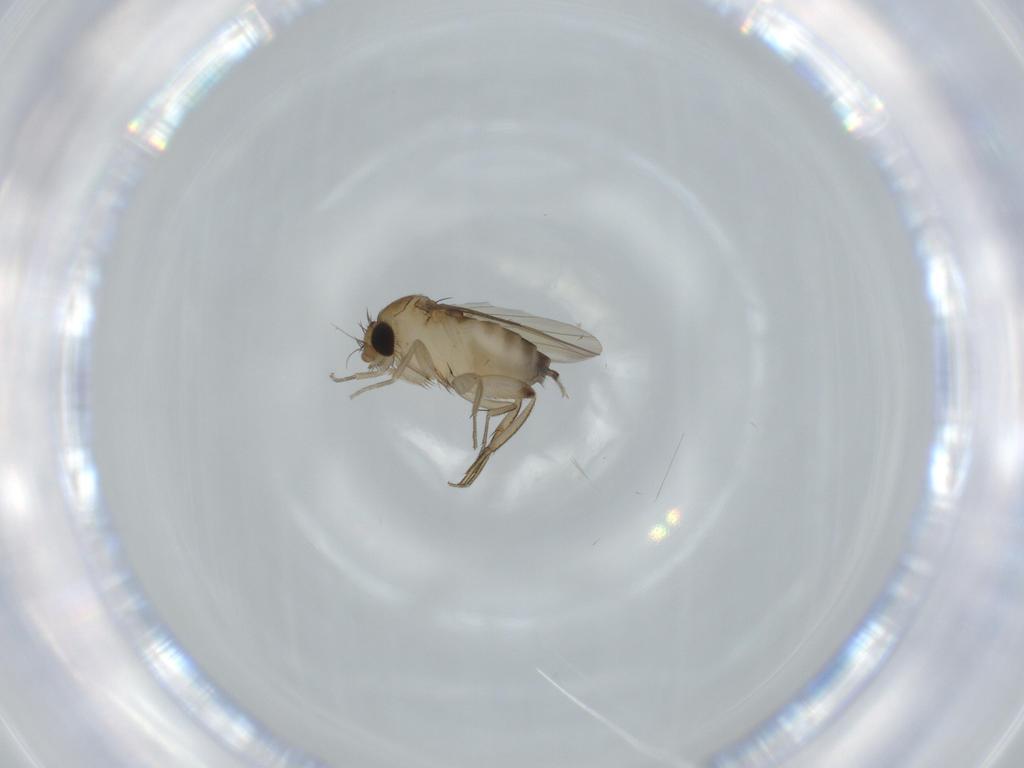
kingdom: Animalia
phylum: Arthropoda
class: Insecta
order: Diptera
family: Phoridae
